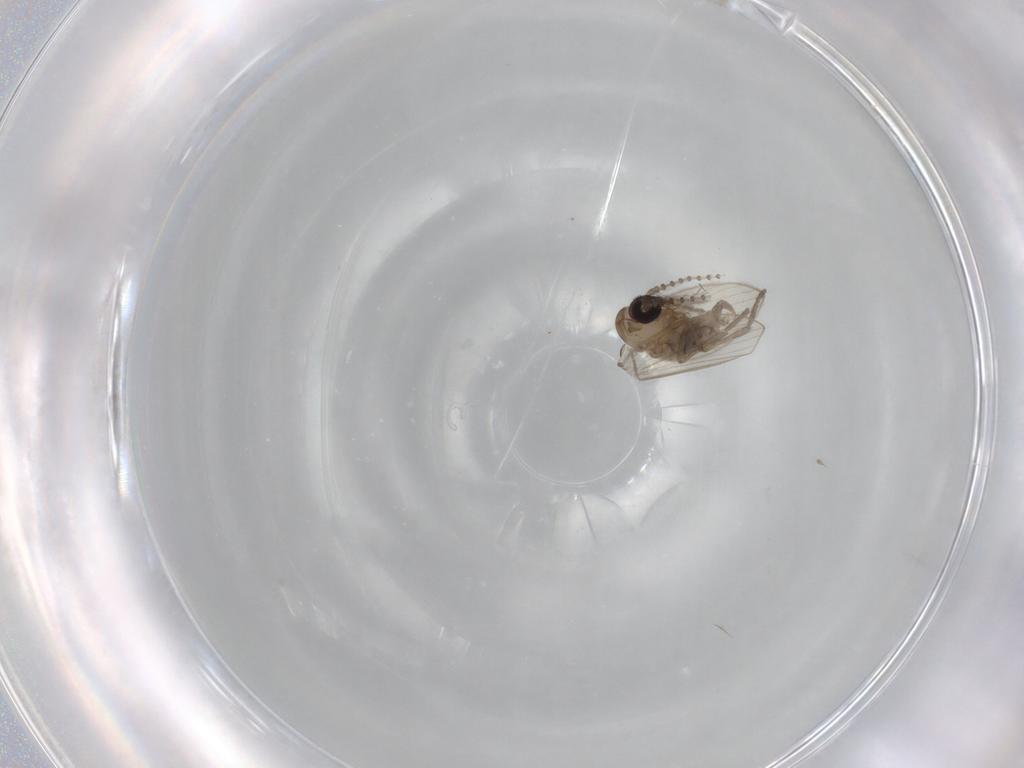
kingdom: Animalia
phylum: Arthropoda
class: Insecta
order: Diptera
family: Psychodidae
